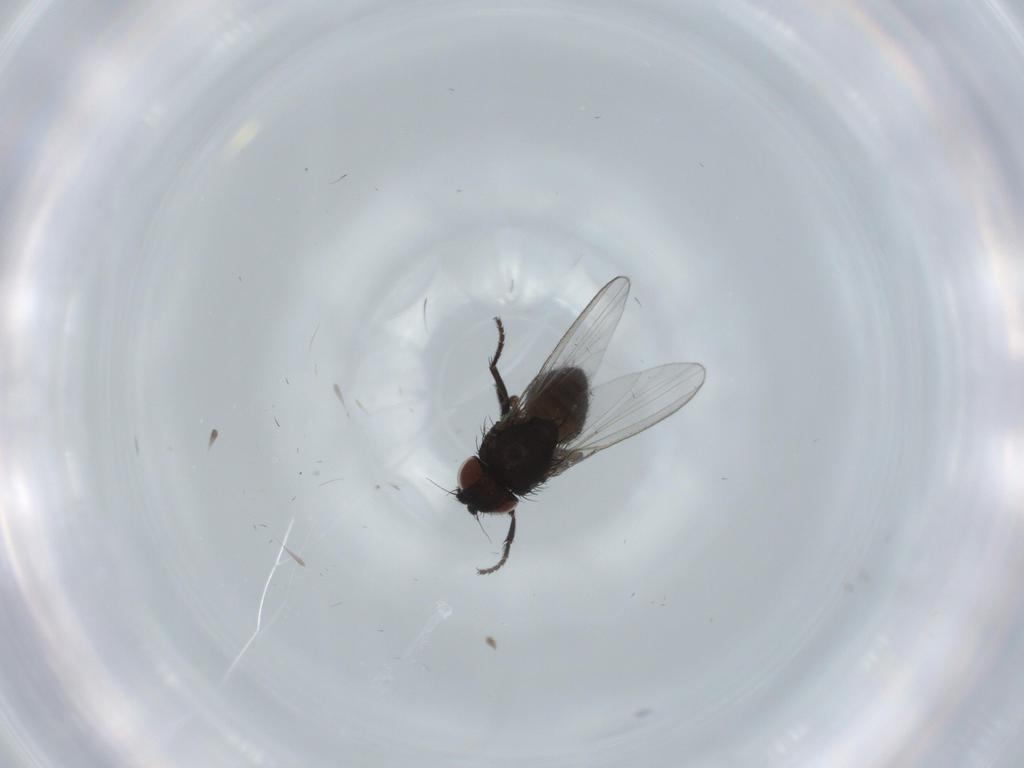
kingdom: Animalia
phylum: Arthropoda
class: Insecta
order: Diptera
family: Milichiidae
